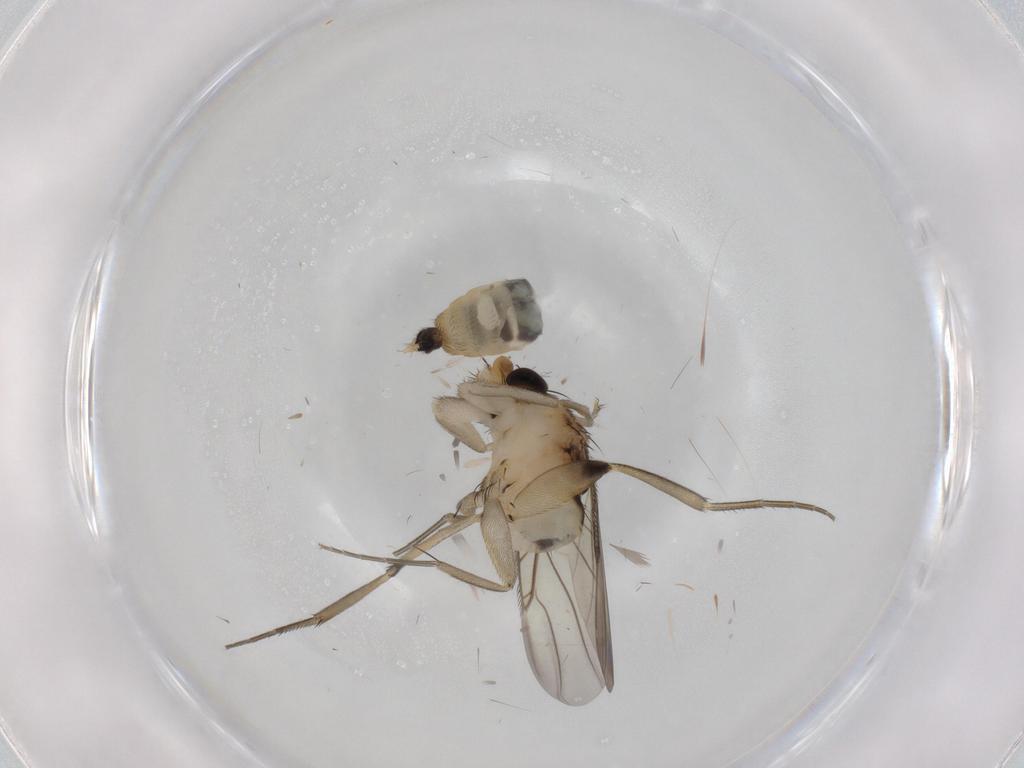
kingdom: Animalia
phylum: Arthropoda
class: Insecta
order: Diptera
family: Phoridae
